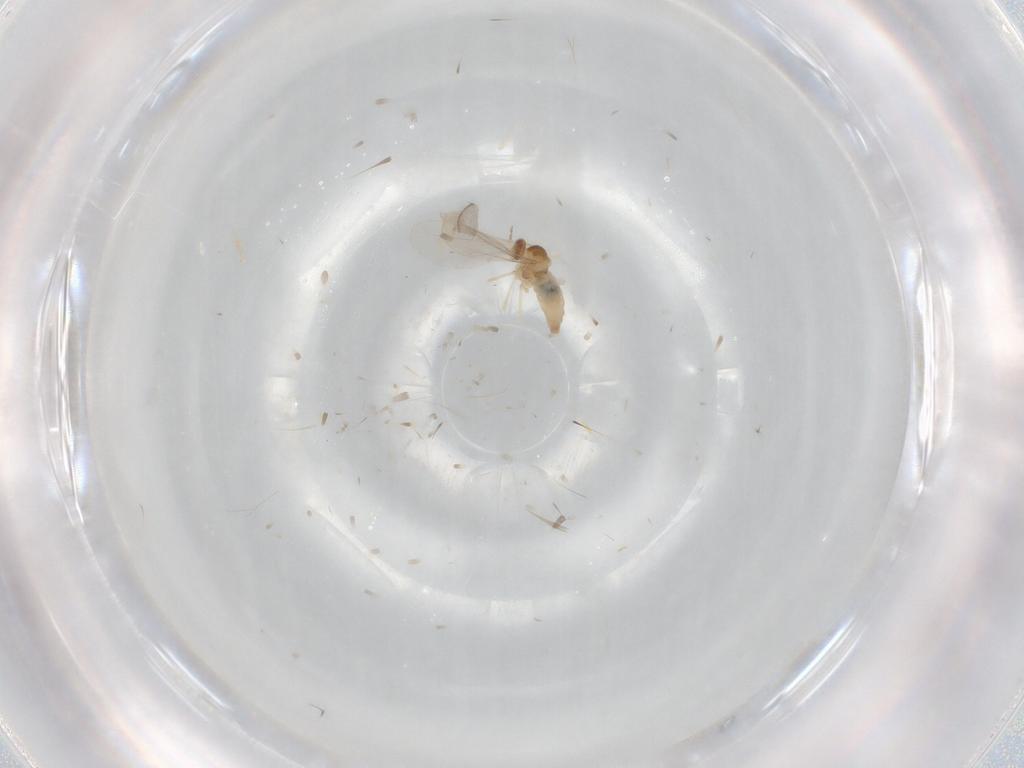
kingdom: Animalia
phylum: Arthropoda
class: Insecta
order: Diptera
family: Cecidomyiidae
